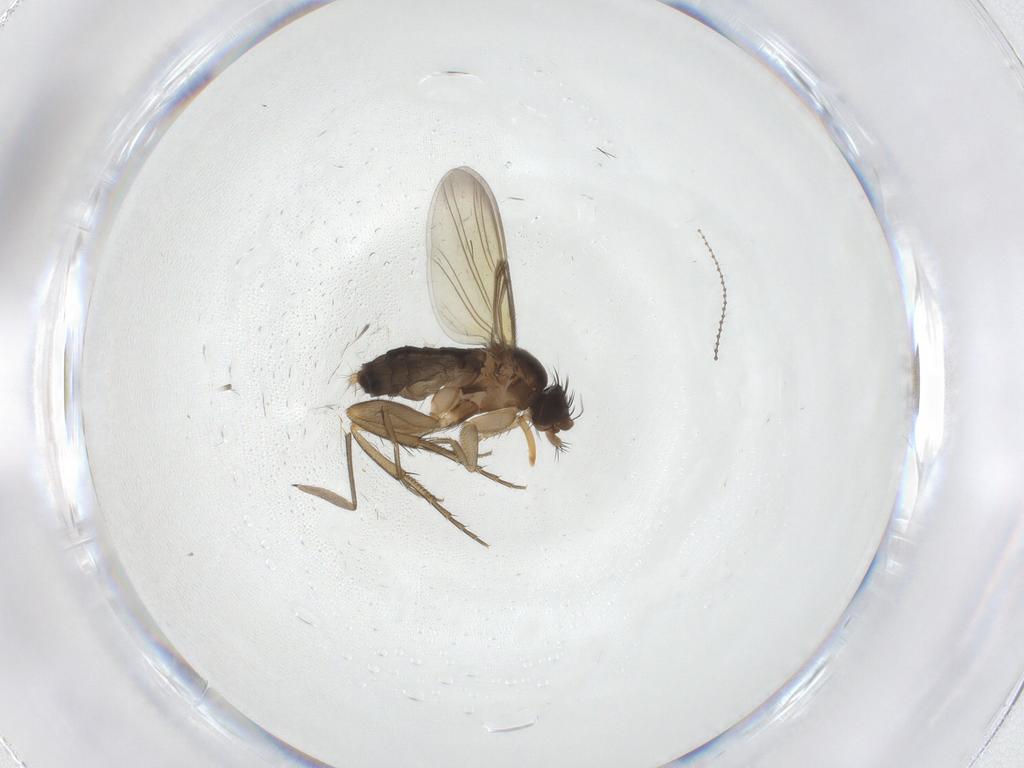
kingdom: Animalia
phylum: Arthropoda
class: Insecta
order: Diptera
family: Phoridae
